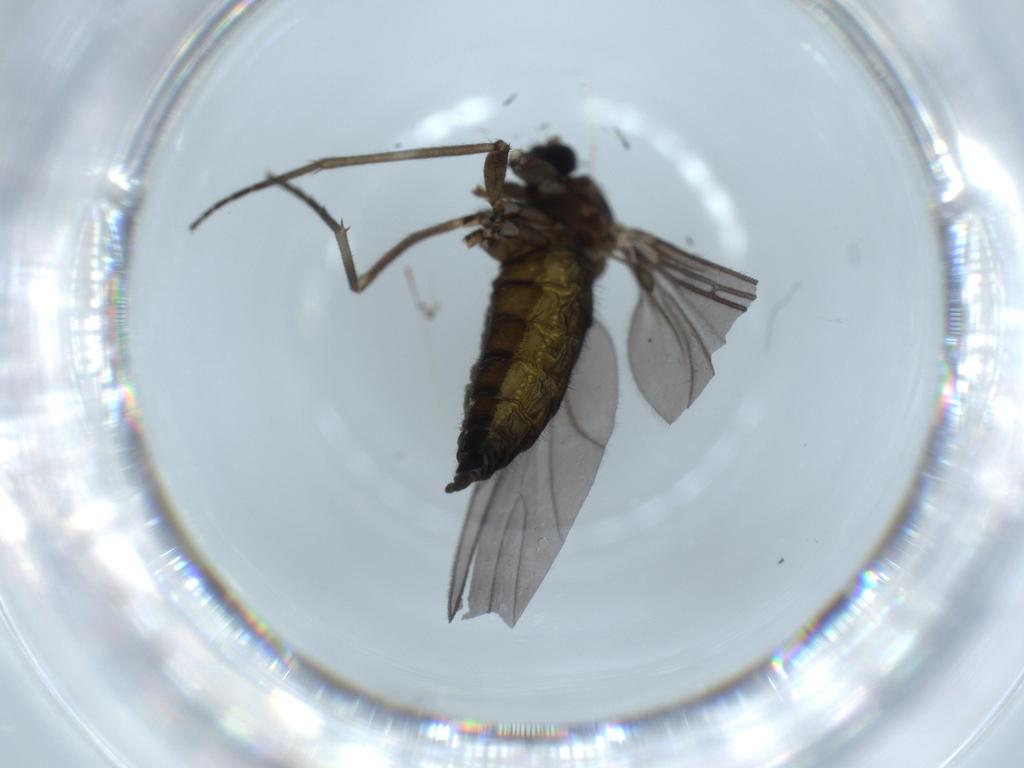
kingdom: Animalia
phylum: Arthropoda
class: Insecta
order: Diptera
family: Sciaridae
